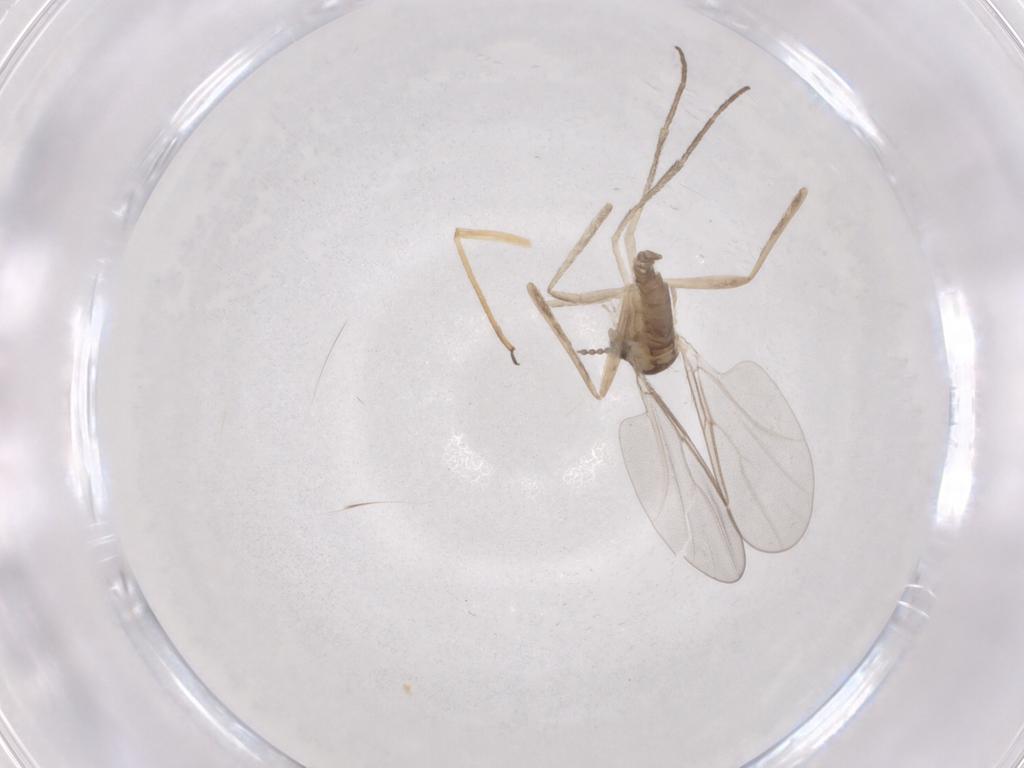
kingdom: Animalia
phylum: Arthropoda
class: Insecta
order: Diptera
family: Cecidomyiidae
